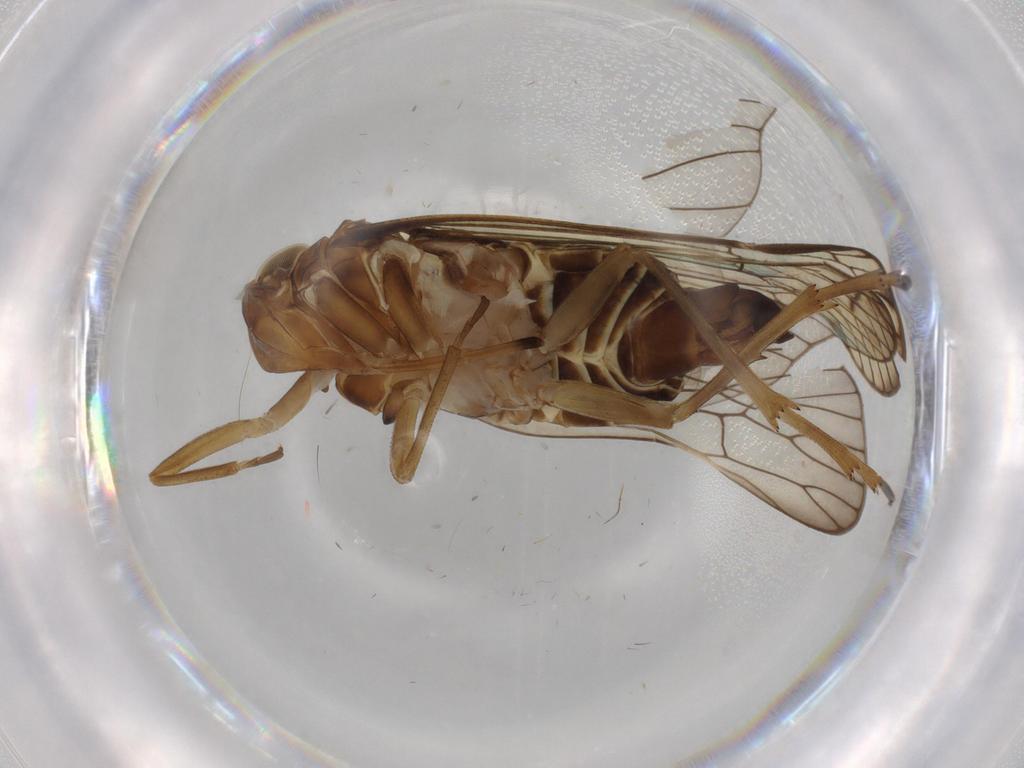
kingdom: Animalia
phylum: Arthropoda
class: Insecta
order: Hemiptera
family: Cixiidae
